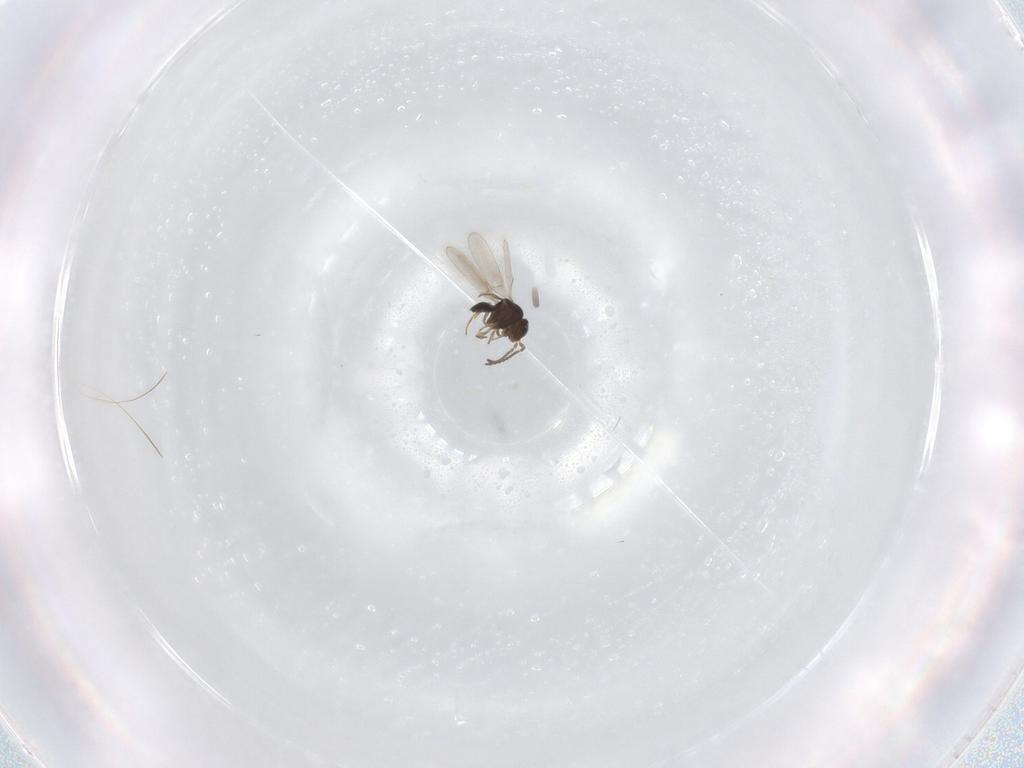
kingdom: Animalia
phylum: Arthropoda
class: Insecta
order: Hymenoptera
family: Scelionidae
